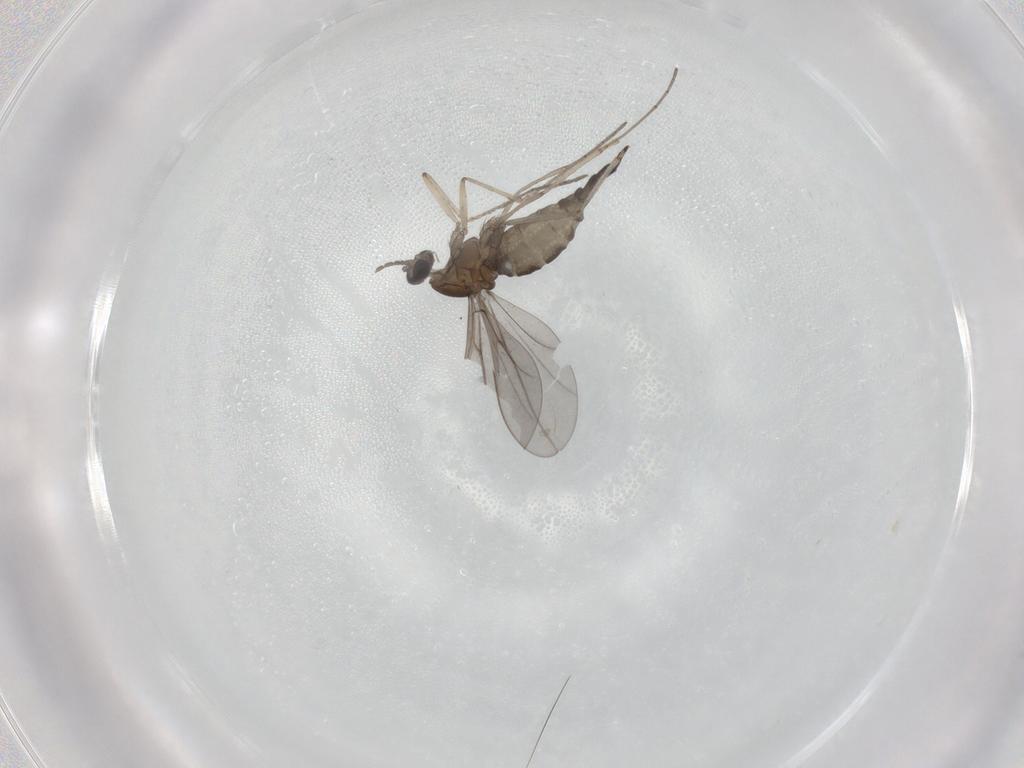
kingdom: Animalia
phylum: Arthropoda
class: Insecta
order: Diptera
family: Cecidomyiidae
